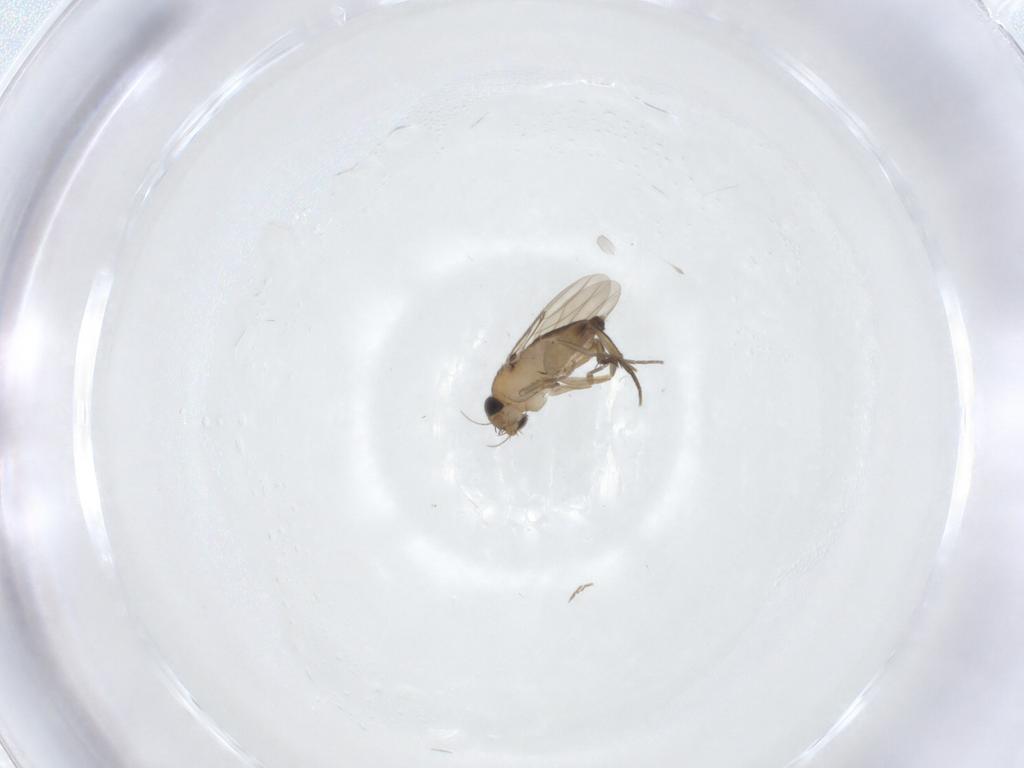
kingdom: Animalia
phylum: Arthropoda
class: Insecta
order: Diptera
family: Phoridae
